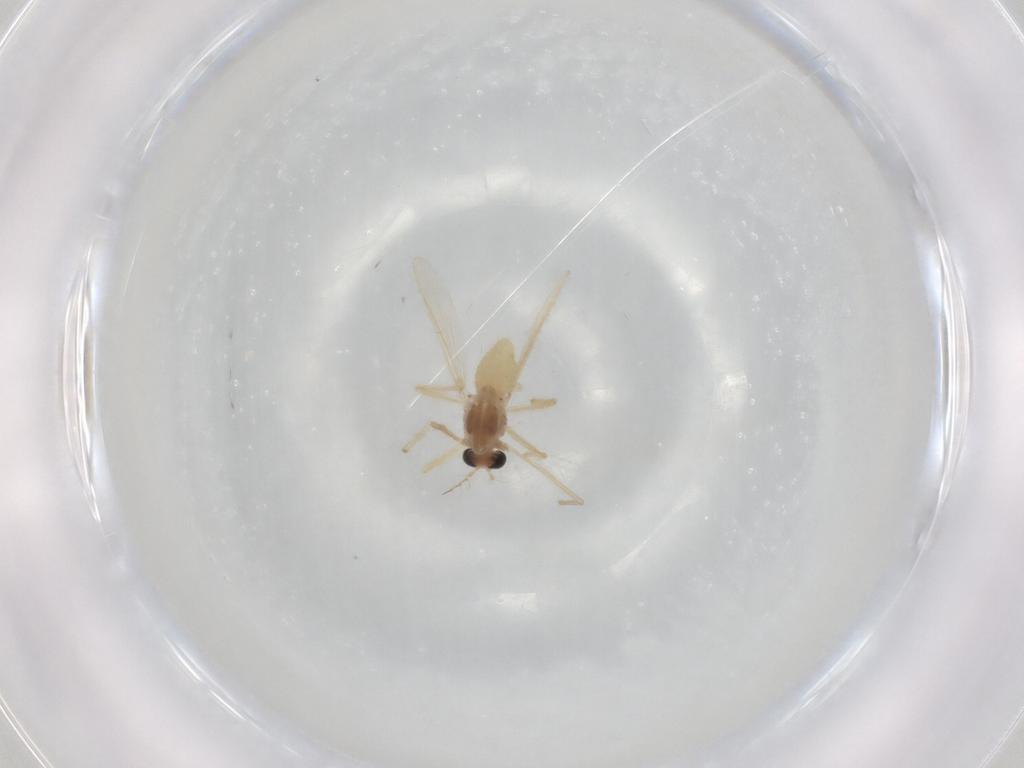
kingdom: Animalia
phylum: Arthropoda
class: Insecta
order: Diptera
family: Chironomidae
